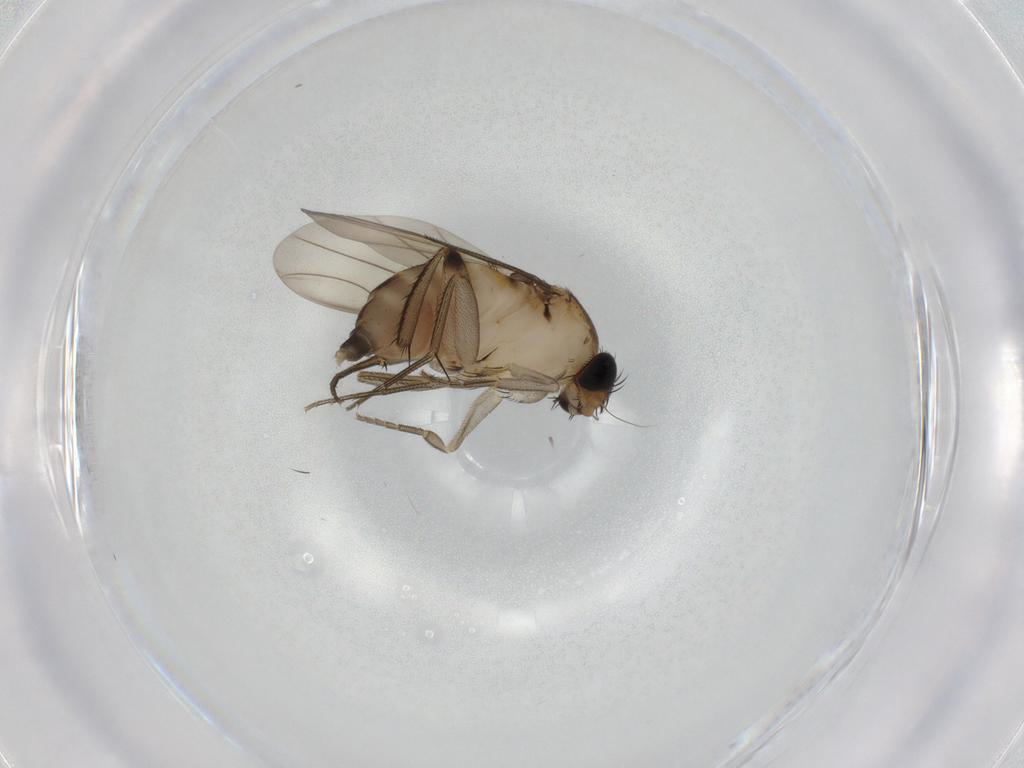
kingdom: Animalia
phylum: Arthropoda
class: Insecta
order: Diptera
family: Phoridae
